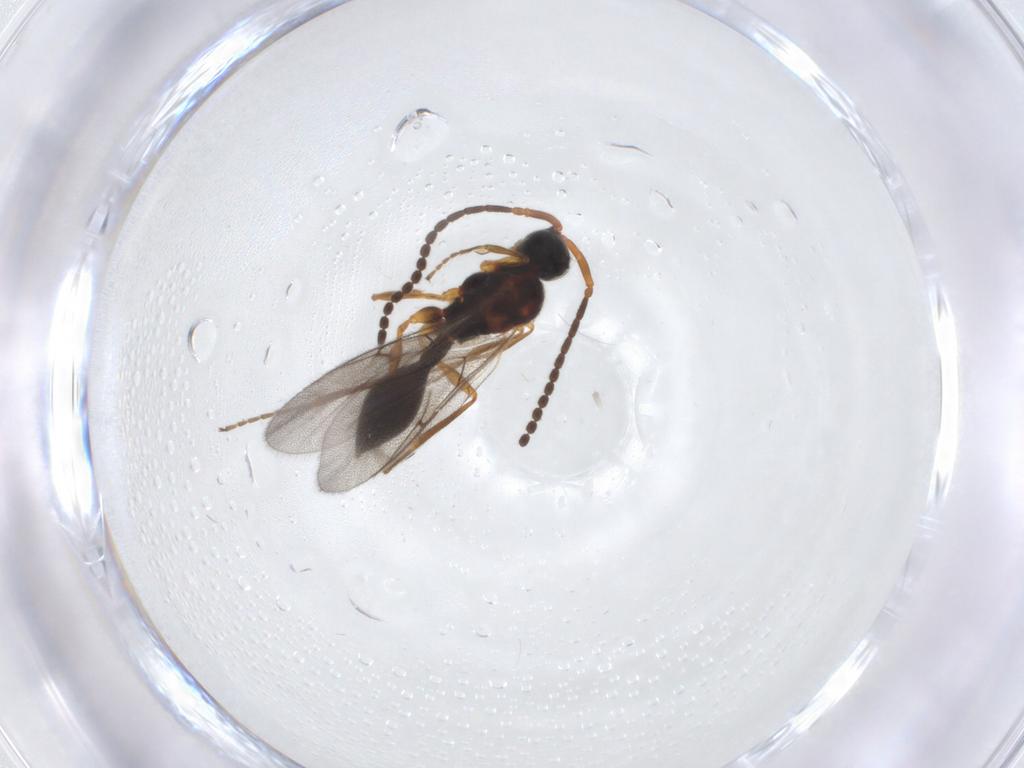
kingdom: Animalia
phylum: Arthropoda
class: Insecta
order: Hymenoptera
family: Diapriidae
